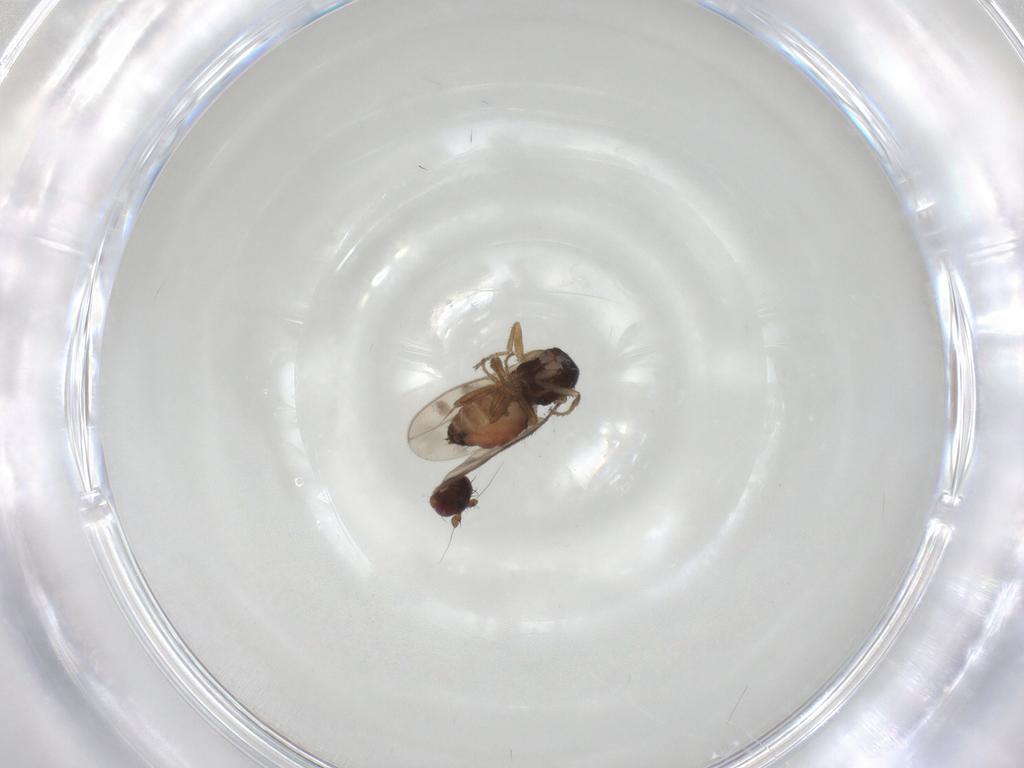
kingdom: Animalia
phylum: Arthropoda
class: Insecta
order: Diptera
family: Sphaeroceridae
